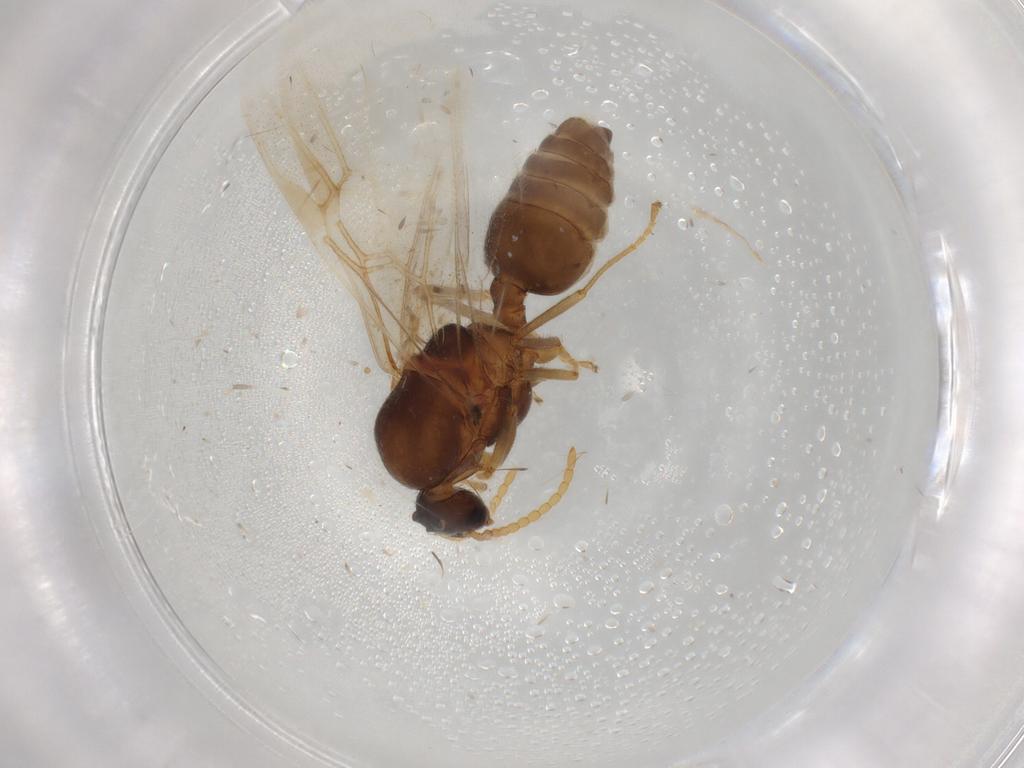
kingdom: Animalia
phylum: Arthropoda
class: Insecta
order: Hymenoptera
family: Formicidae
